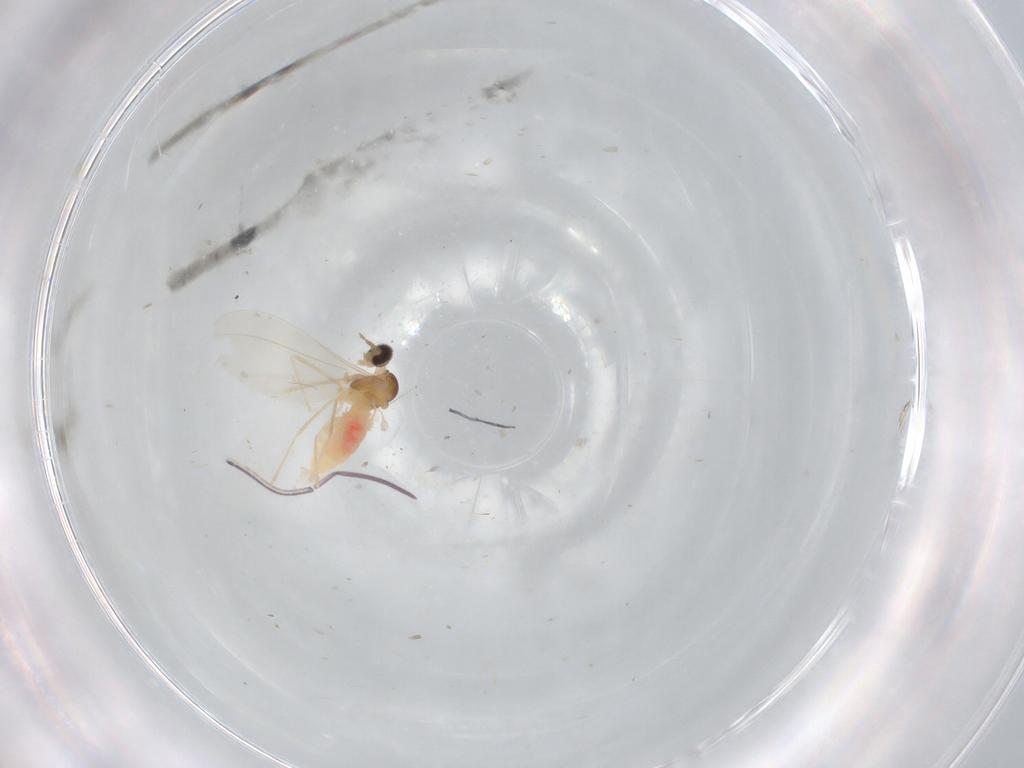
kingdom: Animalia
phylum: Arthropoda
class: Insecta
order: Diptera
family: Cecidomyiidae
